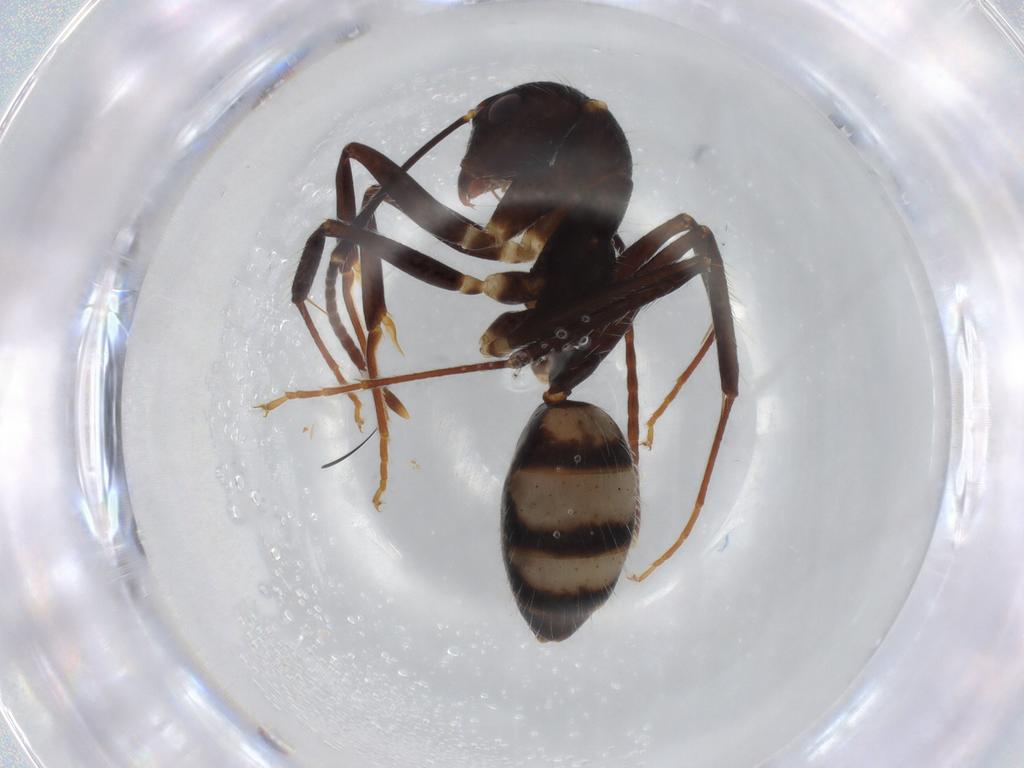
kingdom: Animalia
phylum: Arthropoda
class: Insecta
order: Hymenoptera
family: Formicidae
